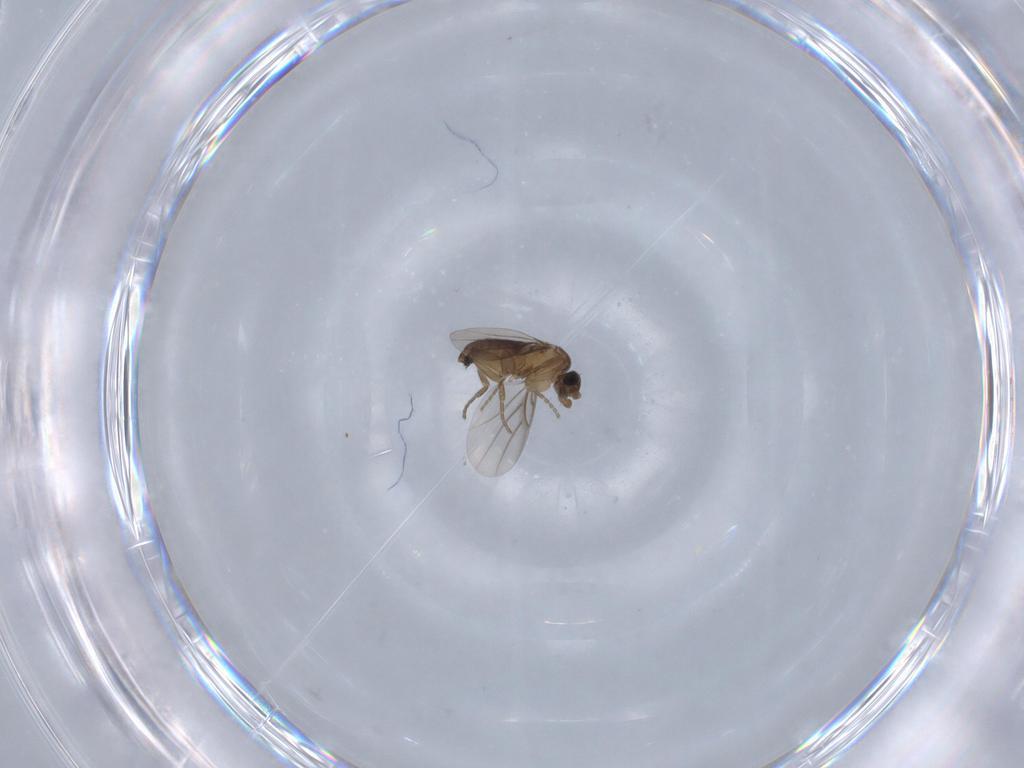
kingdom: Animalia
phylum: Arthropoda
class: Insecta
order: Diptera
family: Phoridae
